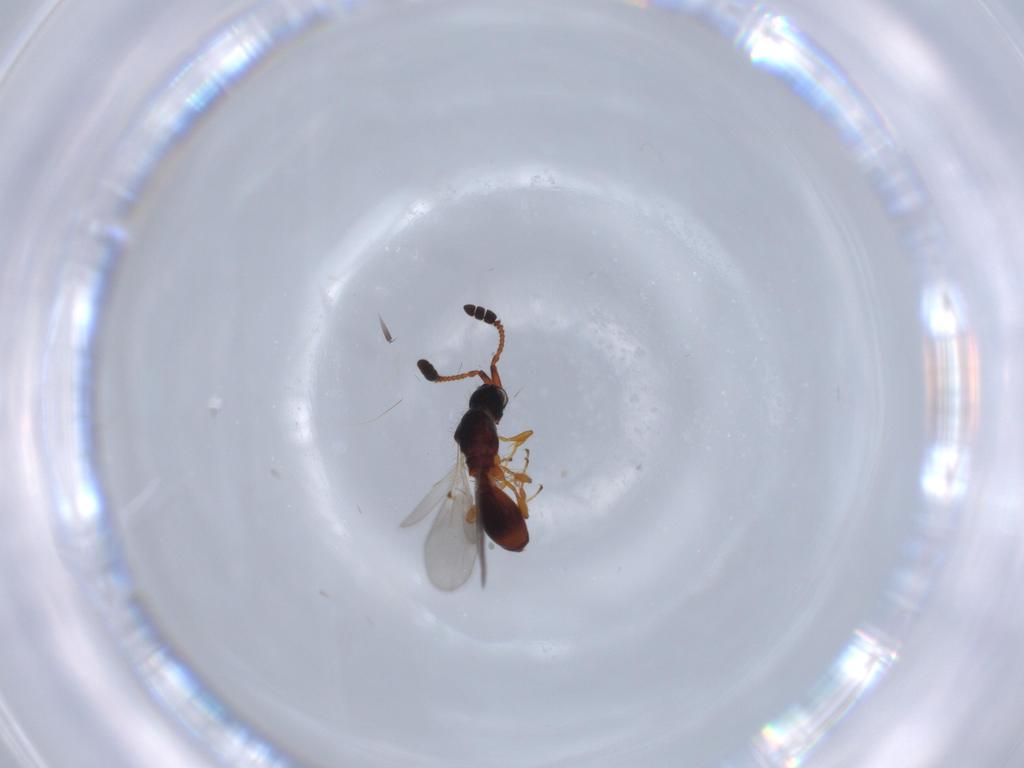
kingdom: Animalia
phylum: Arthropoda
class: Insecta
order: Hymenoptera
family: Diapriidae
